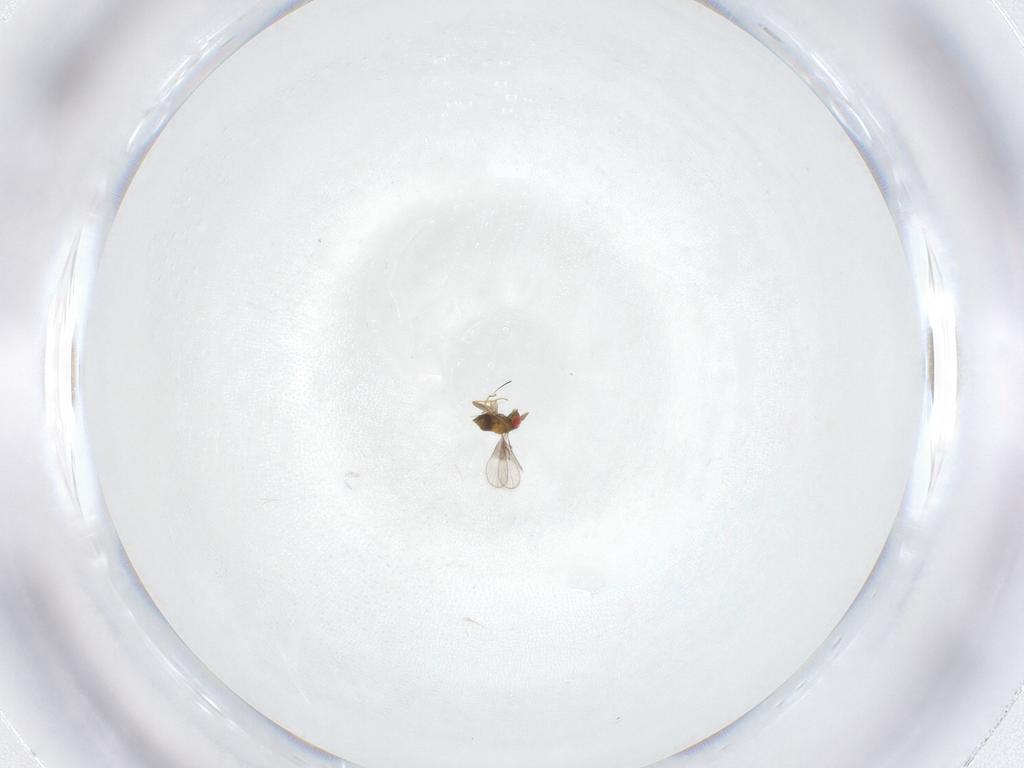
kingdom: Animalia
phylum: Arthropoda
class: Insecta
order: Hymenoptera
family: Trichogrammatidae
